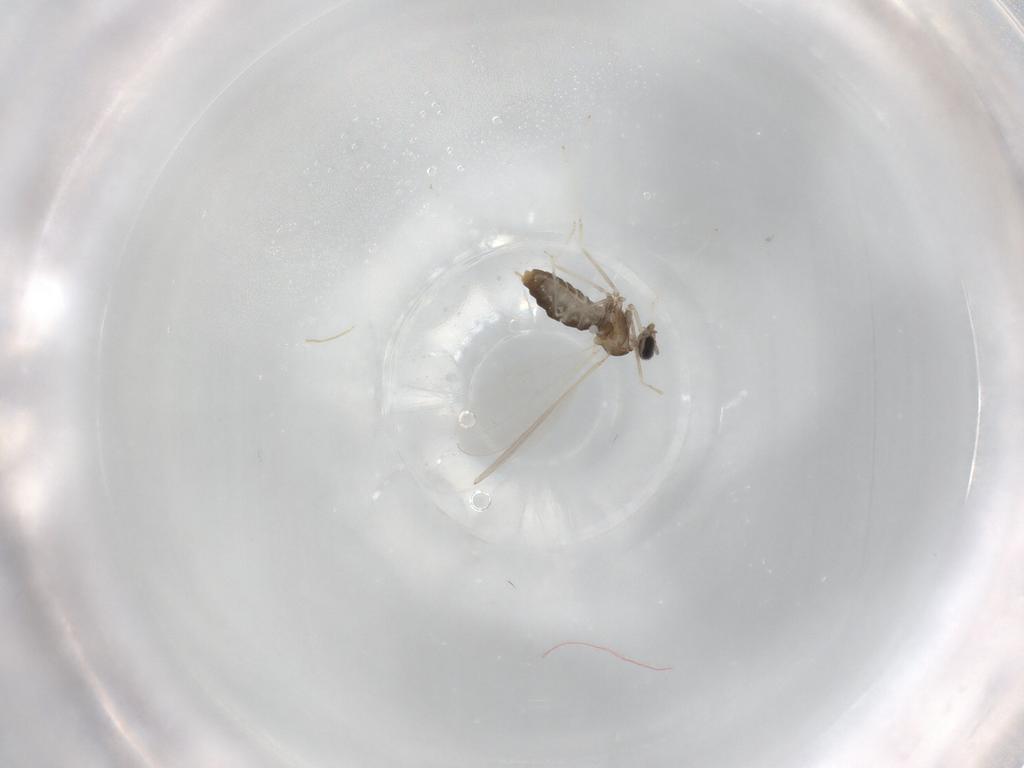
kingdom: Animalia
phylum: Arthropoda
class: Insecta
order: Diptera
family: Cecidomyiidae
